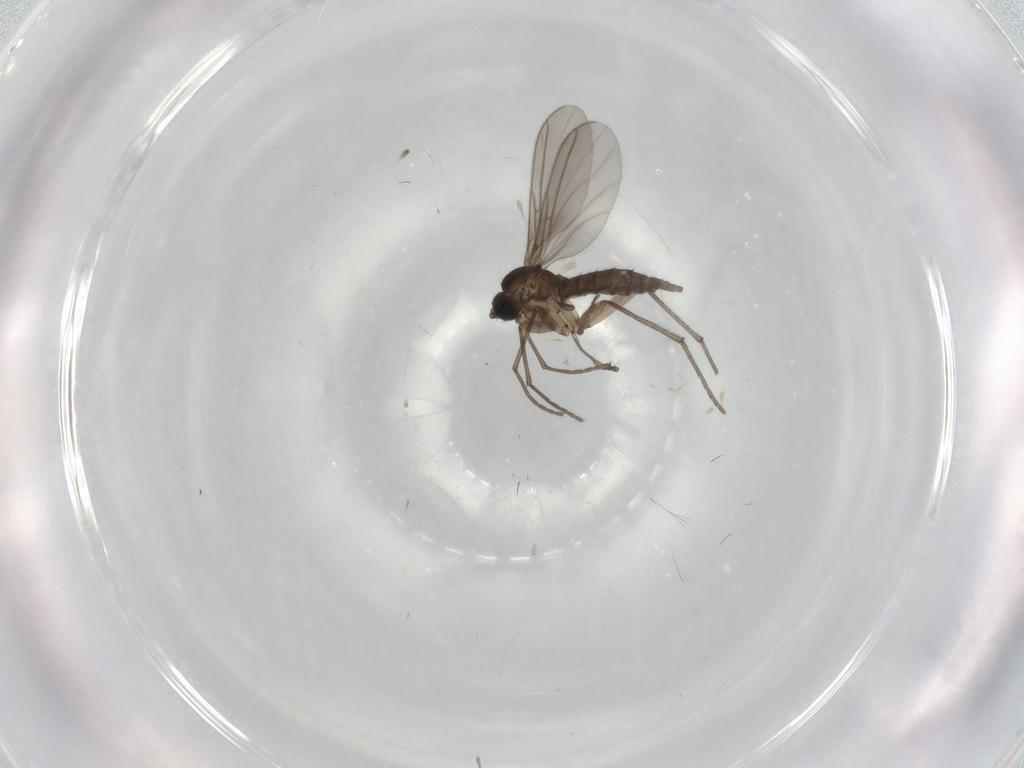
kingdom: Animalia
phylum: Arthropoda
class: Insecta
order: Diptera
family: Sciaridae
